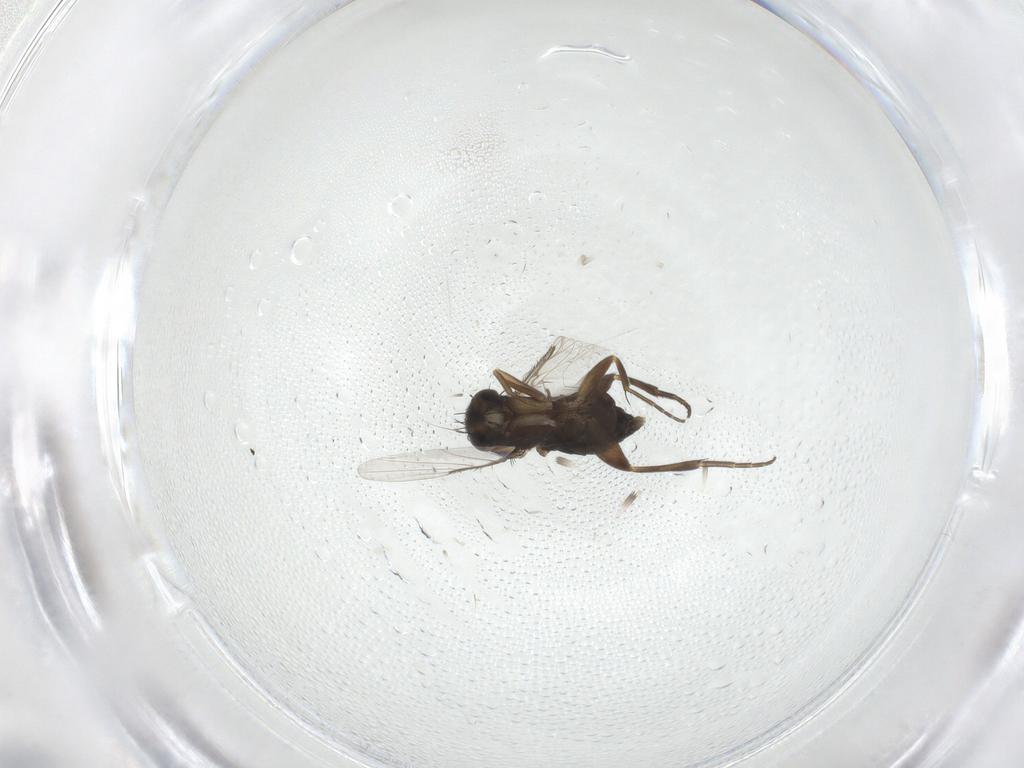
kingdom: Animalia
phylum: Arthropoda
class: Insecta
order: Diptera
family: Phoridae
